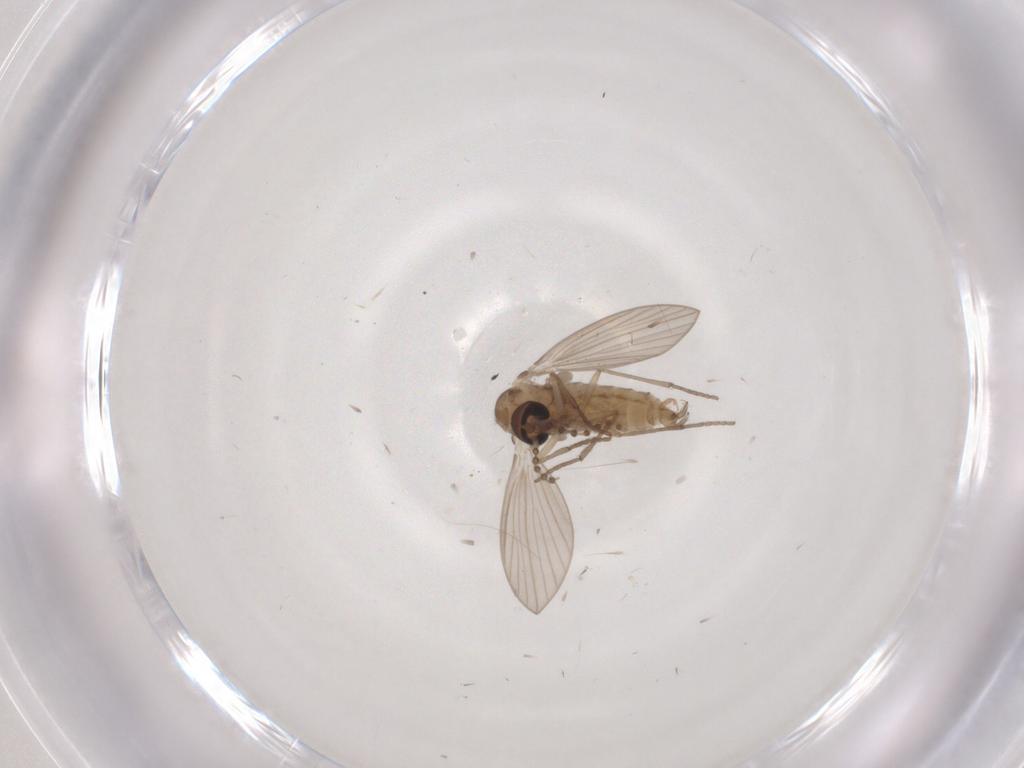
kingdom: Animalia
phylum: Arthropoda
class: Insecta
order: Diptera
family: Psychodidae
